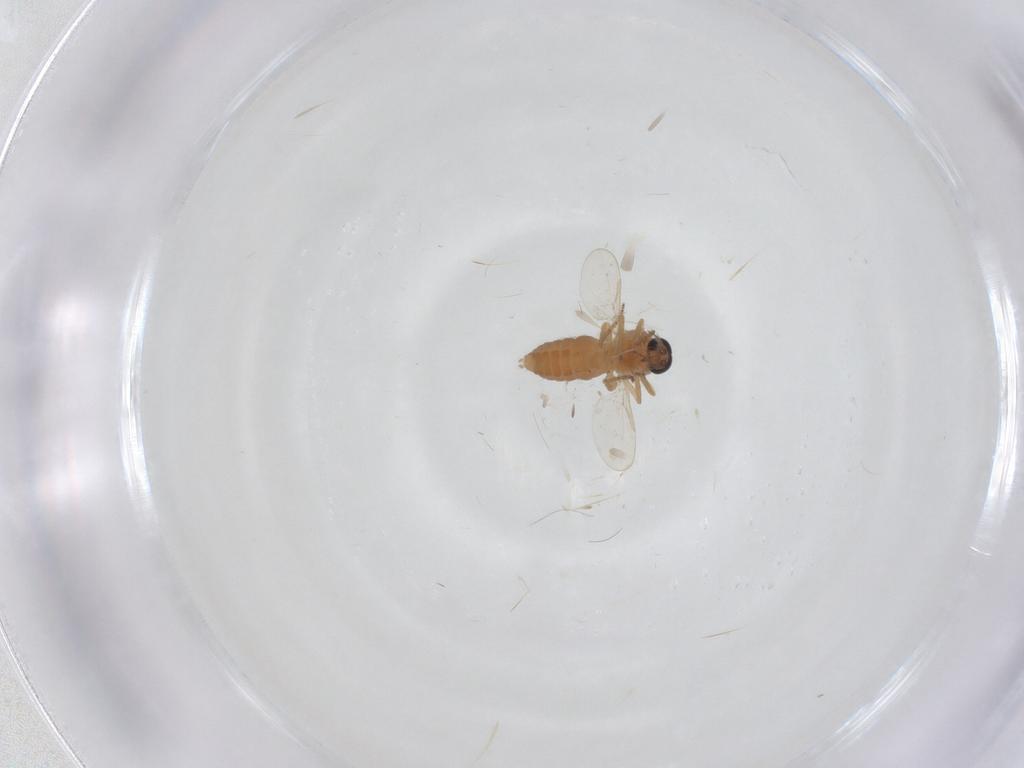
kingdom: Animalia
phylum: Arthropoda
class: Insecta
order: Diptera
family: Ceratopogonidae
